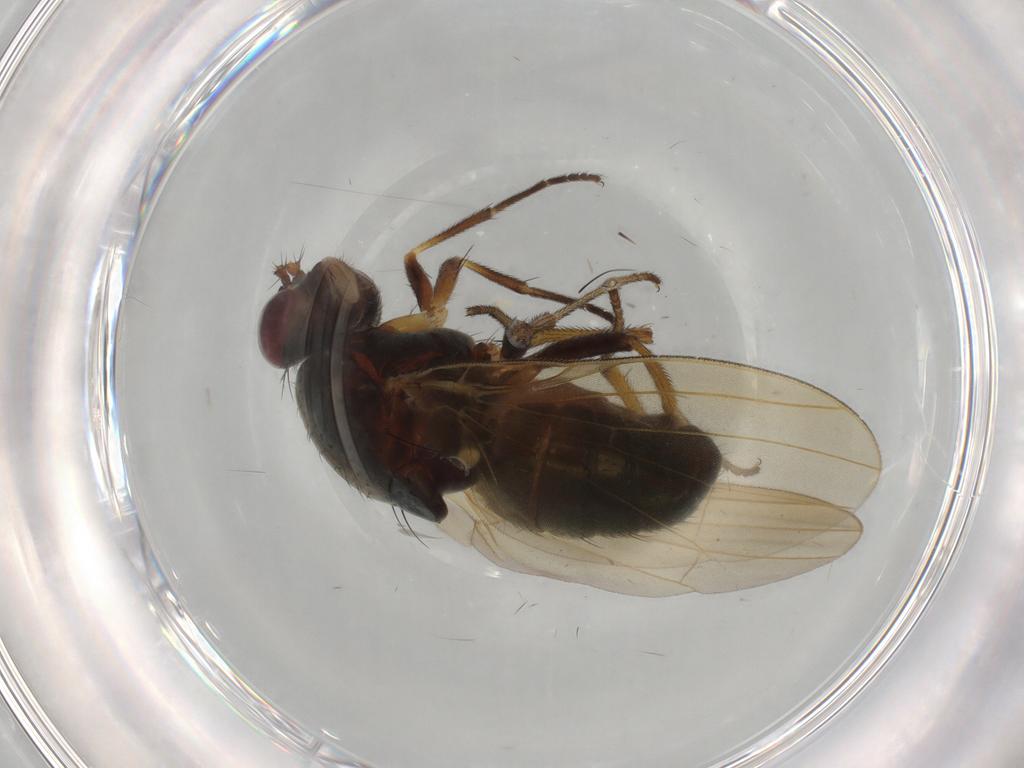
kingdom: Animalia
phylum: Arthropoda
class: Insecta
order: Diptera
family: Phoridae
